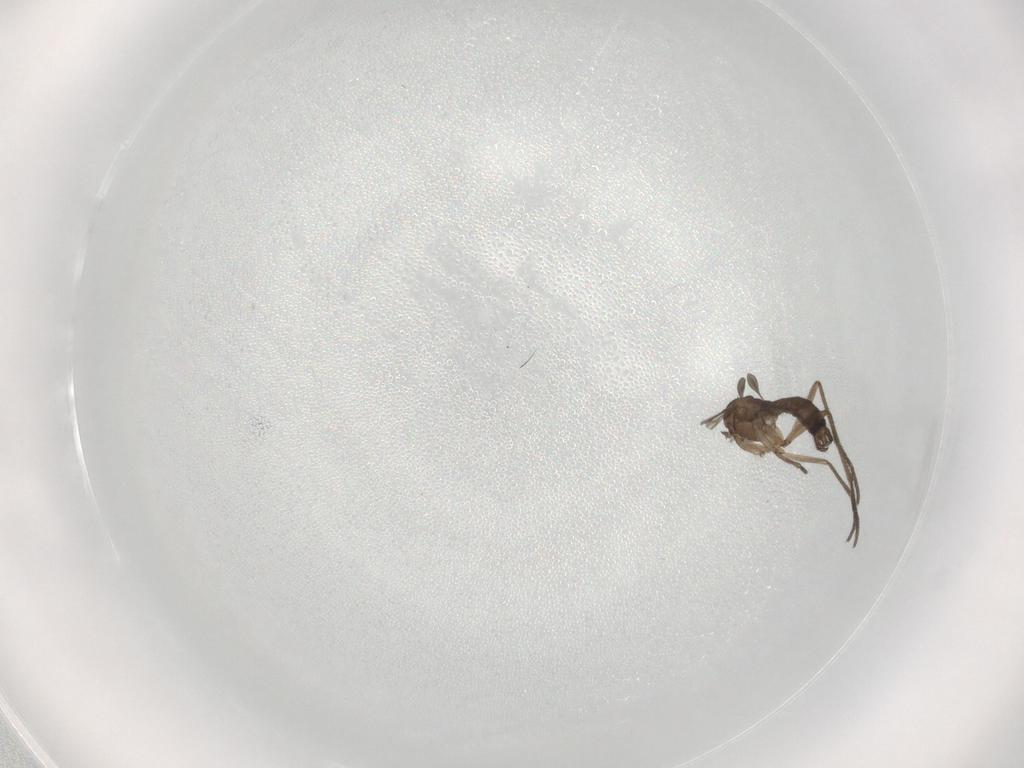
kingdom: Animalia
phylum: Arthropoda
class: Insecta
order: Diptera
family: Sciaridae
